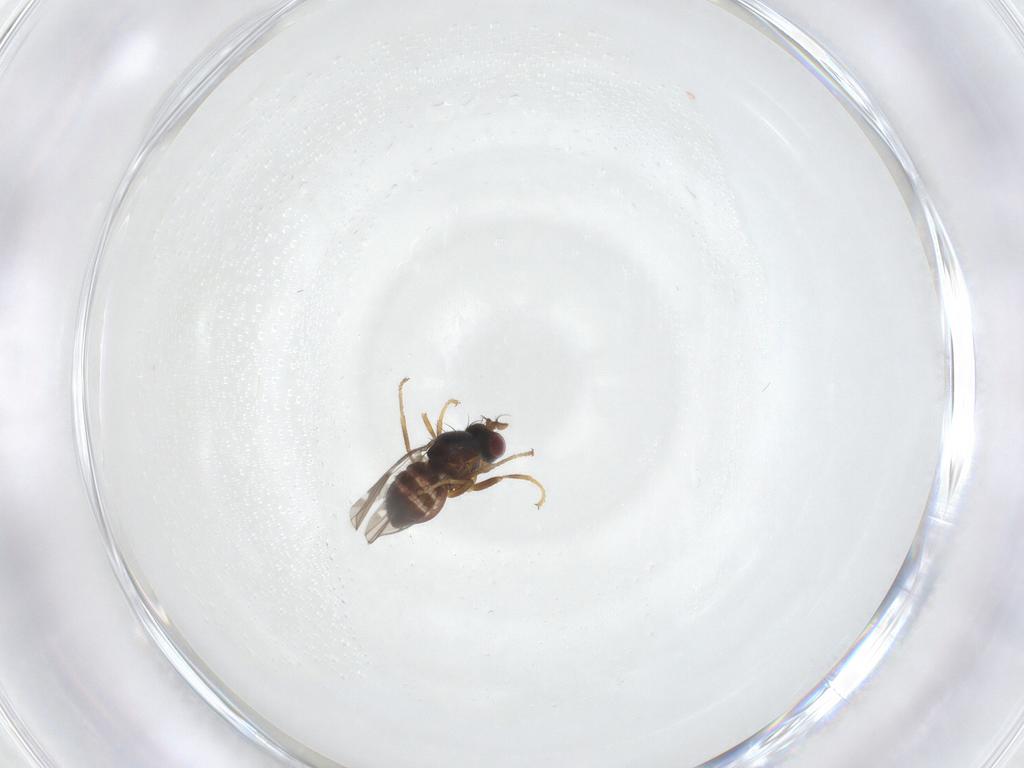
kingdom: Animalia
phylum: Arthropoda
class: Insecta
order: Diptera
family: Ephydridae
